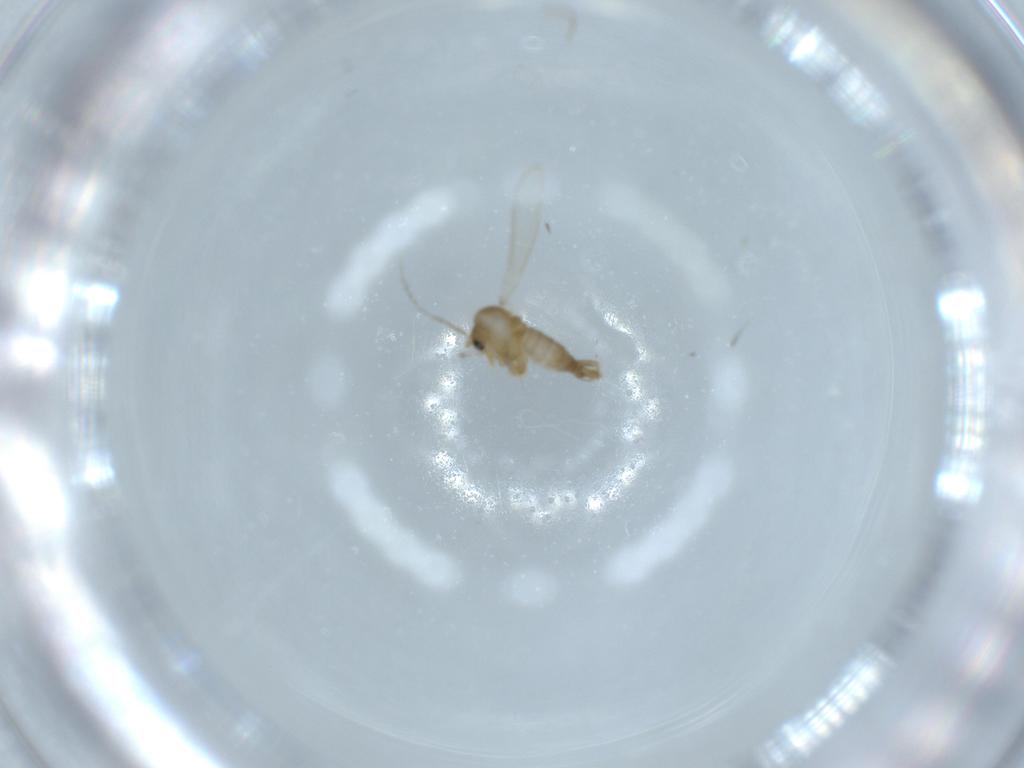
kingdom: Animalia
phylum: Arthropoda
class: Insecta
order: Diptera
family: Psychodidae
